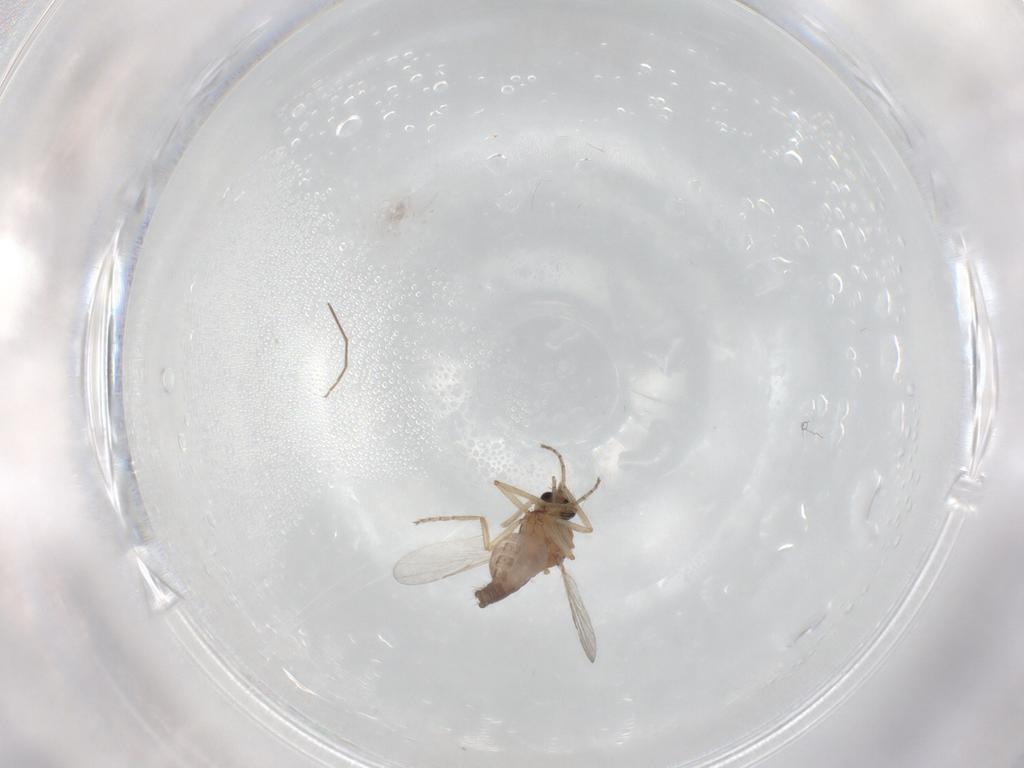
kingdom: Animalia
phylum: Arthropoda
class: Insecta
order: Diptera
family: Ceratopogonidae
